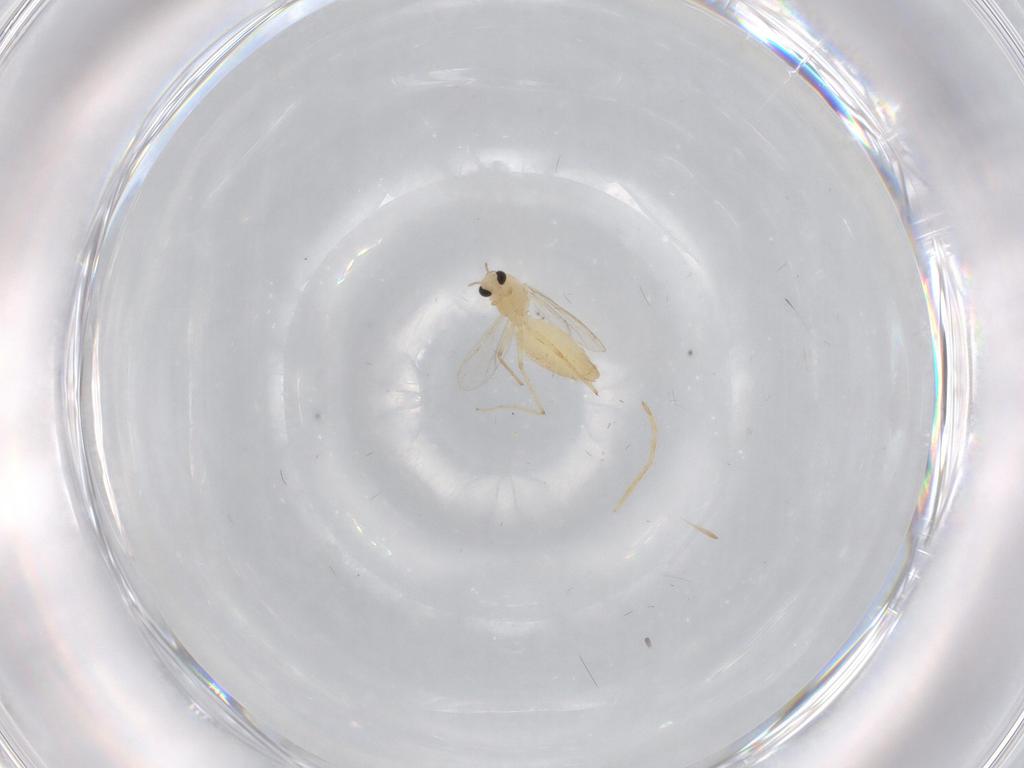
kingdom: Animalia
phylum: Arthropoda
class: Insecta
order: Diptera
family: Chironomidae
